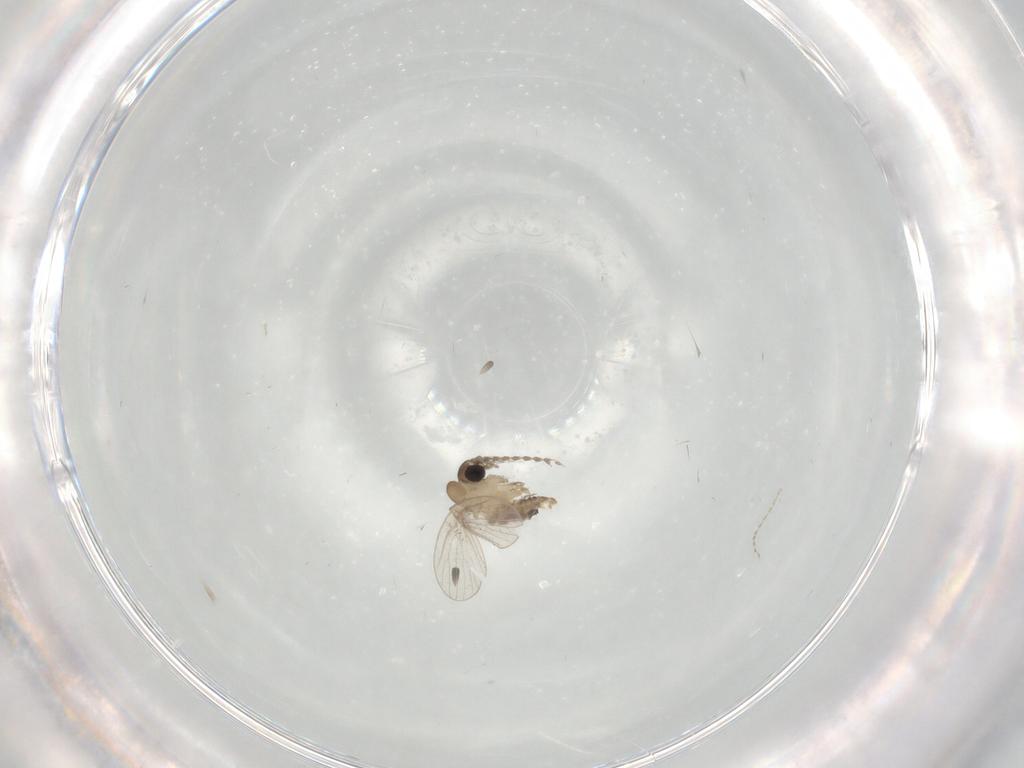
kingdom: Animalia
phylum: Arthropoda
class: Insecta
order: Diptera
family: Psychodidae
